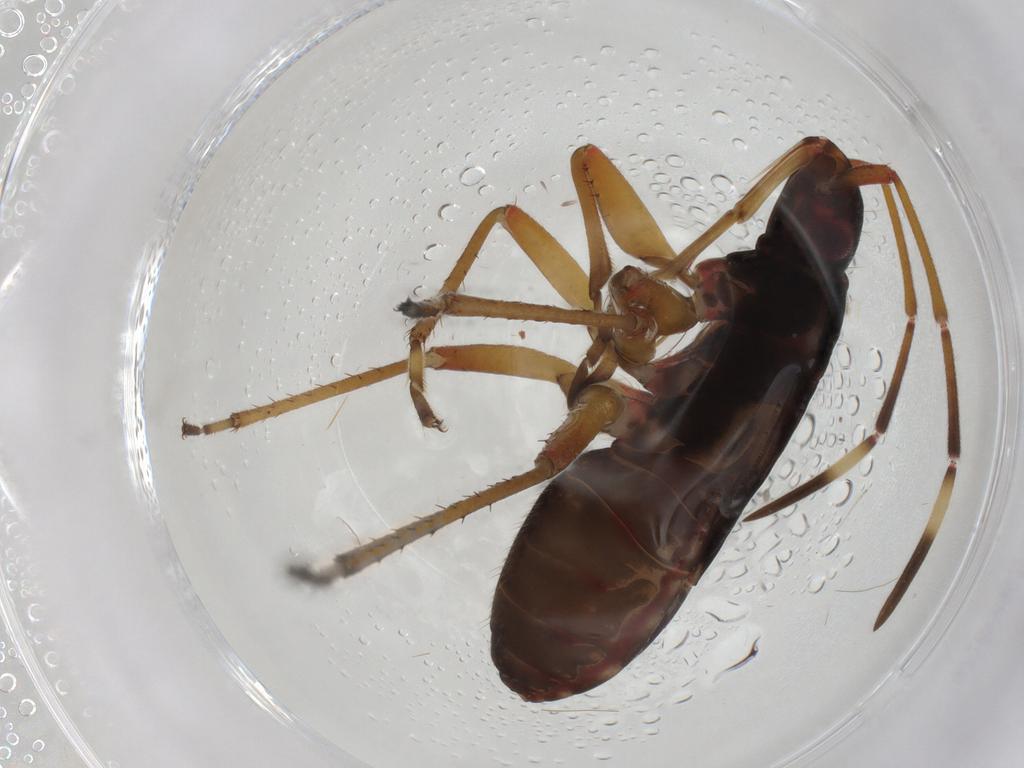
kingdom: Animalia
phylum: Arthropoda
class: Insecta
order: Hemiptera
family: Rhyparochromidae
